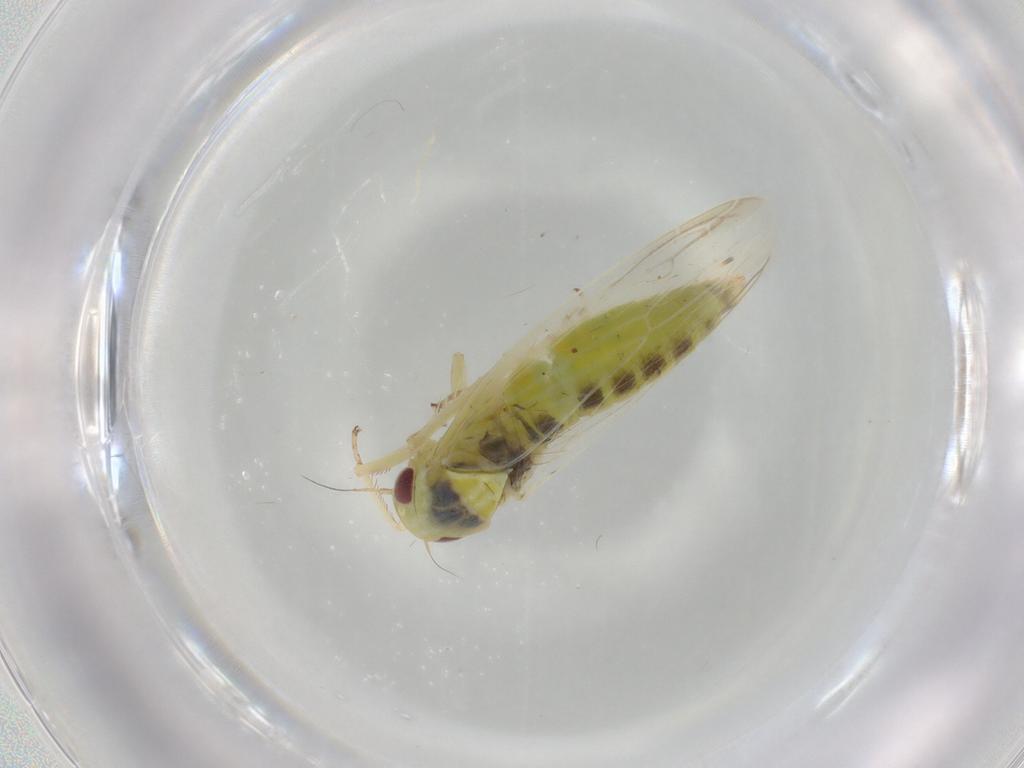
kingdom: Animalia
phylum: Arthropoda
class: Insecta
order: Hemiptera
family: Cicadellidae
